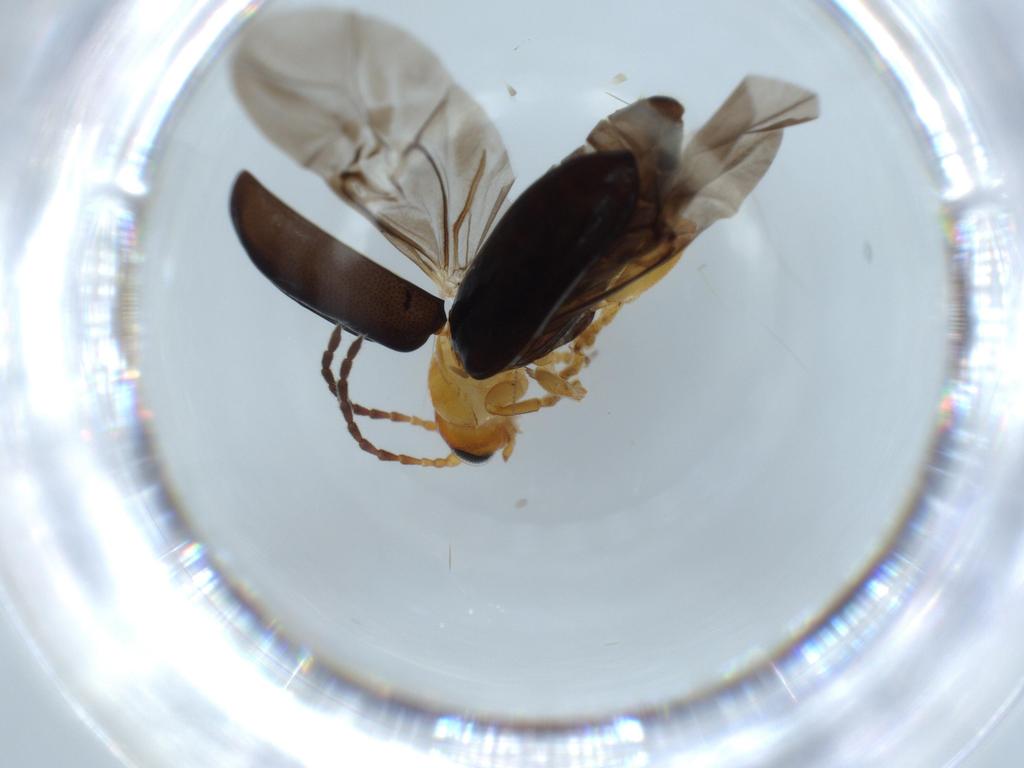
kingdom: Animalia
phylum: Arthropoda
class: Insecta
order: Coleoptera
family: Chrysomelidae
